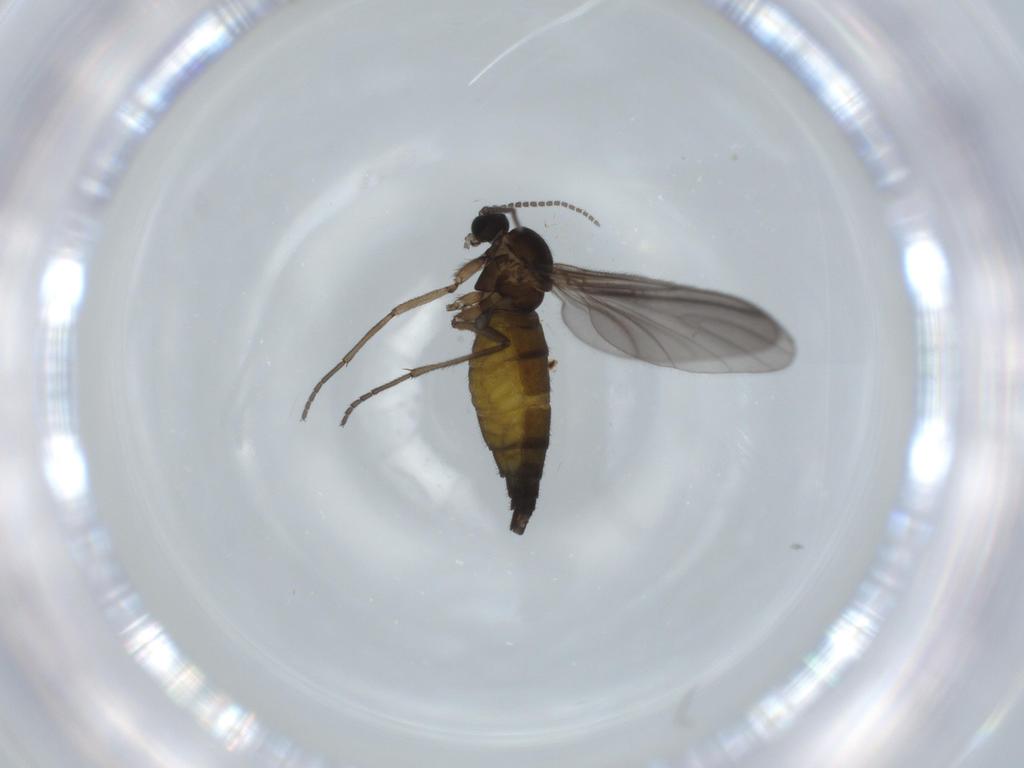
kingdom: Animalia
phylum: Arthropoda
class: Insecta
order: Diptera
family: Sciaridae
